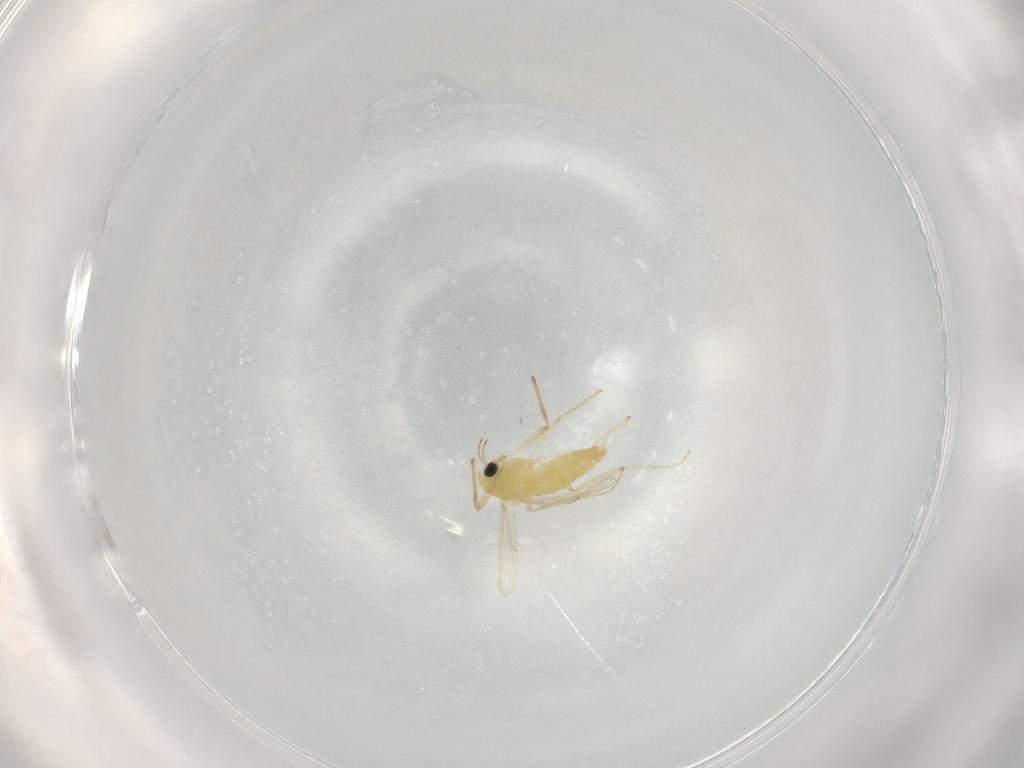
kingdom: Animalia
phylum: Arthropoda
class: Insecta
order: Diptera
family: Chironomidae
